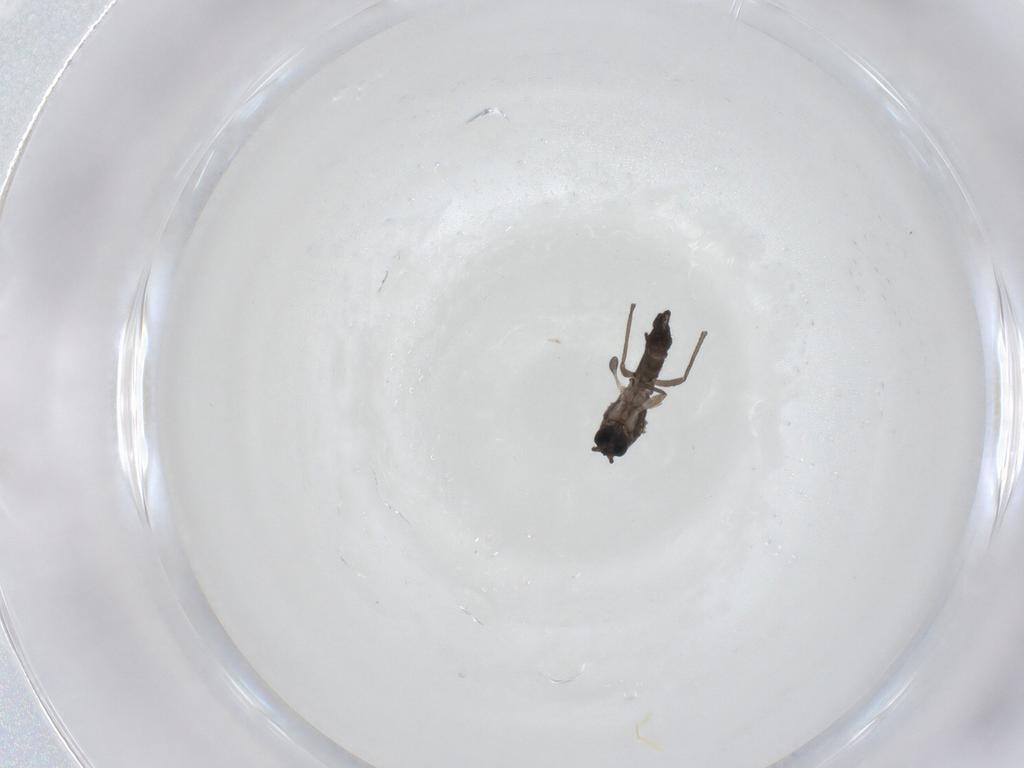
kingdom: Animalia
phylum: Arthropoda
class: Insecta
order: Diptera
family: Sciaridae
